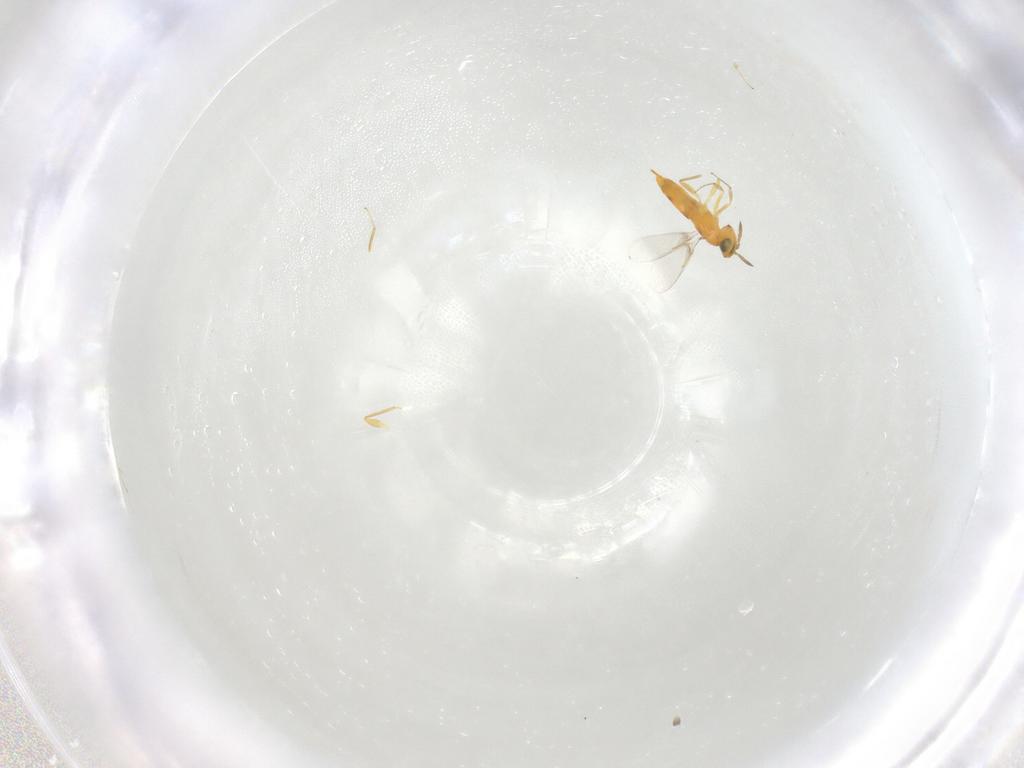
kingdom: Animalia
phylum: Arthropoda
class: Insecta
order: Hymenoptera
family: Aphelinidae
